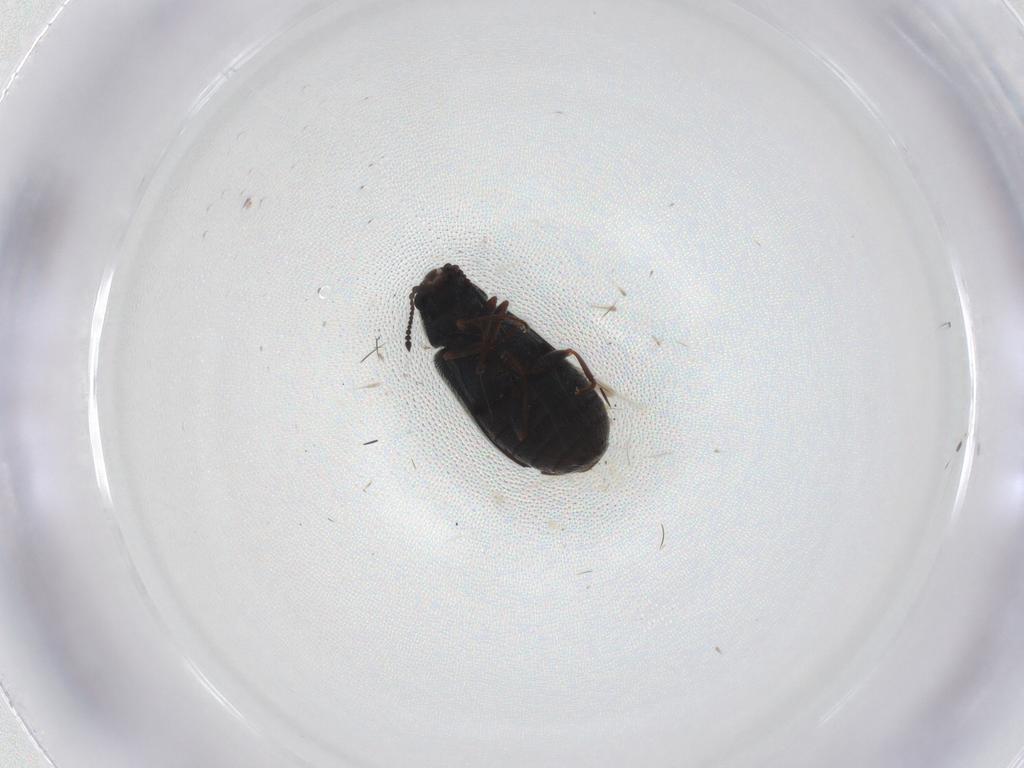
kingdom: Animalia
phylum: Arthropoda
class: Insecta
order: Coleoptera
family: Melyridae
